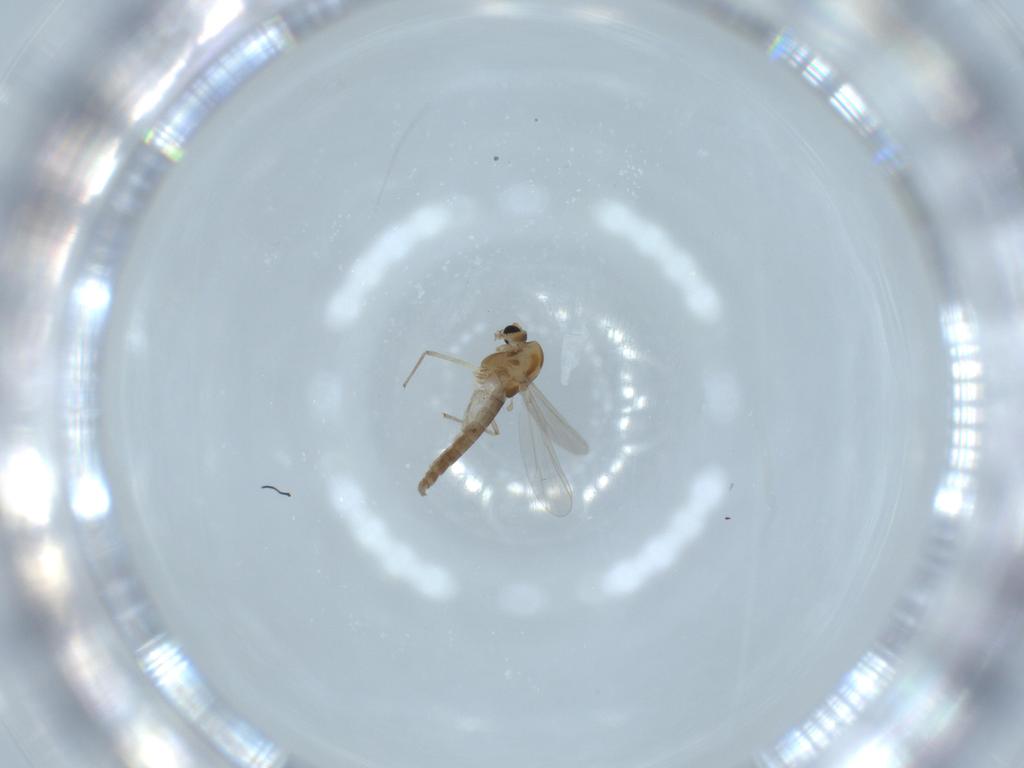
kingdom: Animalia
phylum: Arthropoda
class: Insecta
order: Diptera
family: Chironomidae
